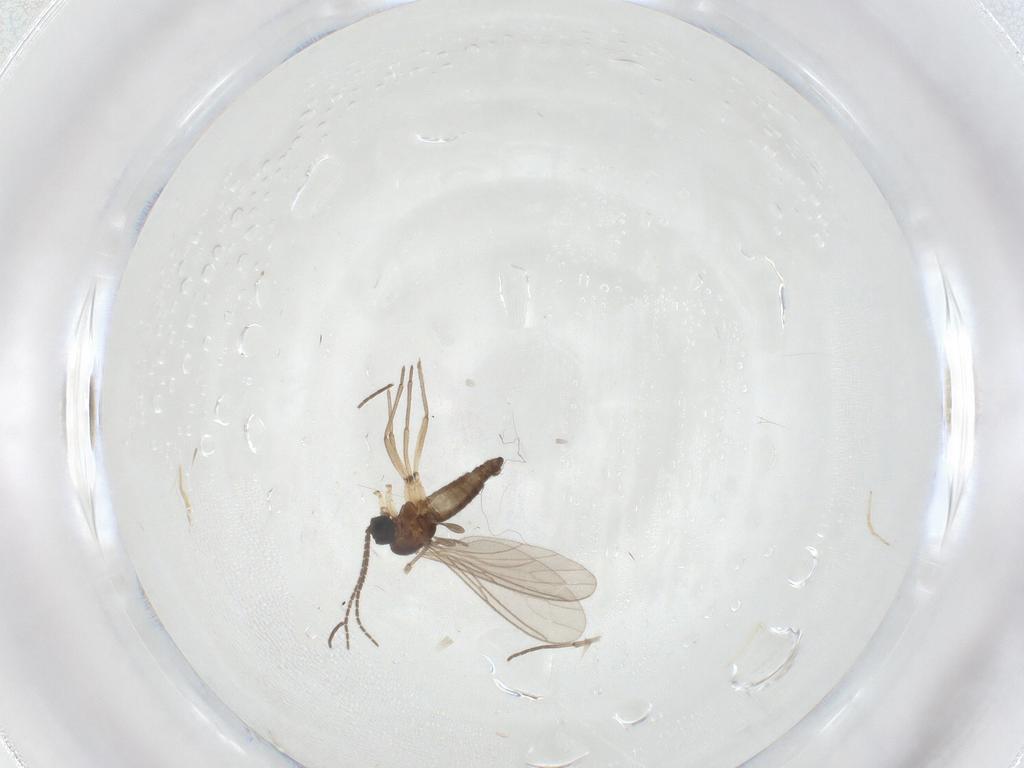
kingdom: Animalia
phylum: Arthropoda
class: Insecta
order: Diptera
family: Sciaridae
